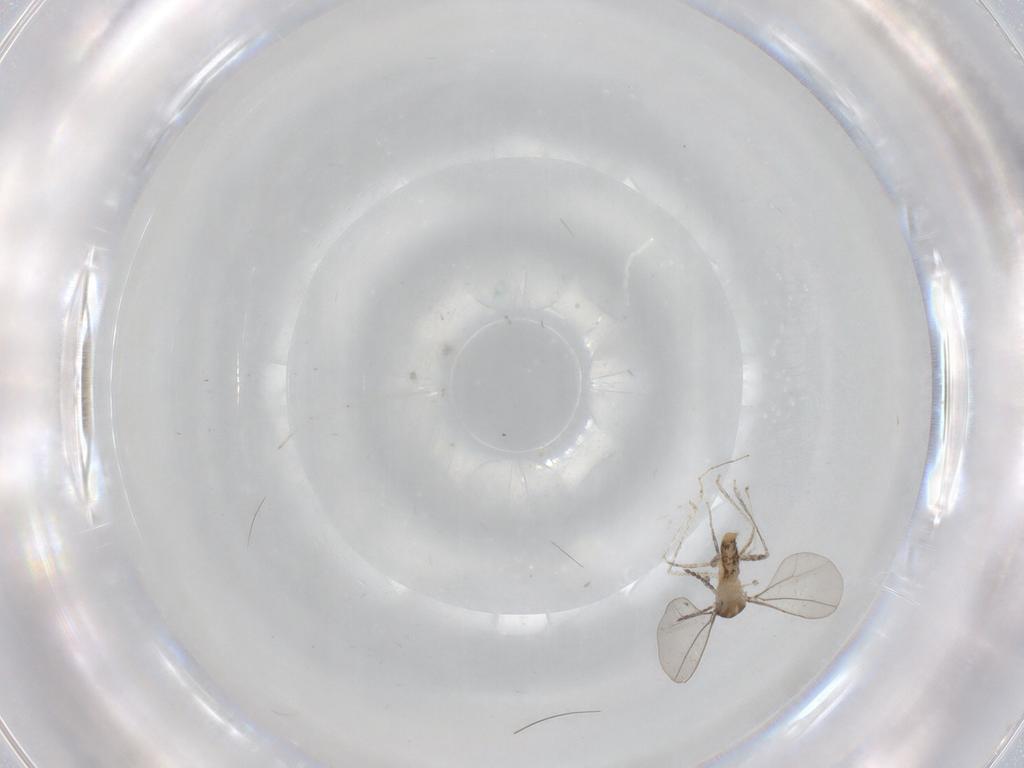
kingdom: Animalia
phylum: Arthropoda
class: Insecta
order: Diptera
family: Cecidomyiidae
